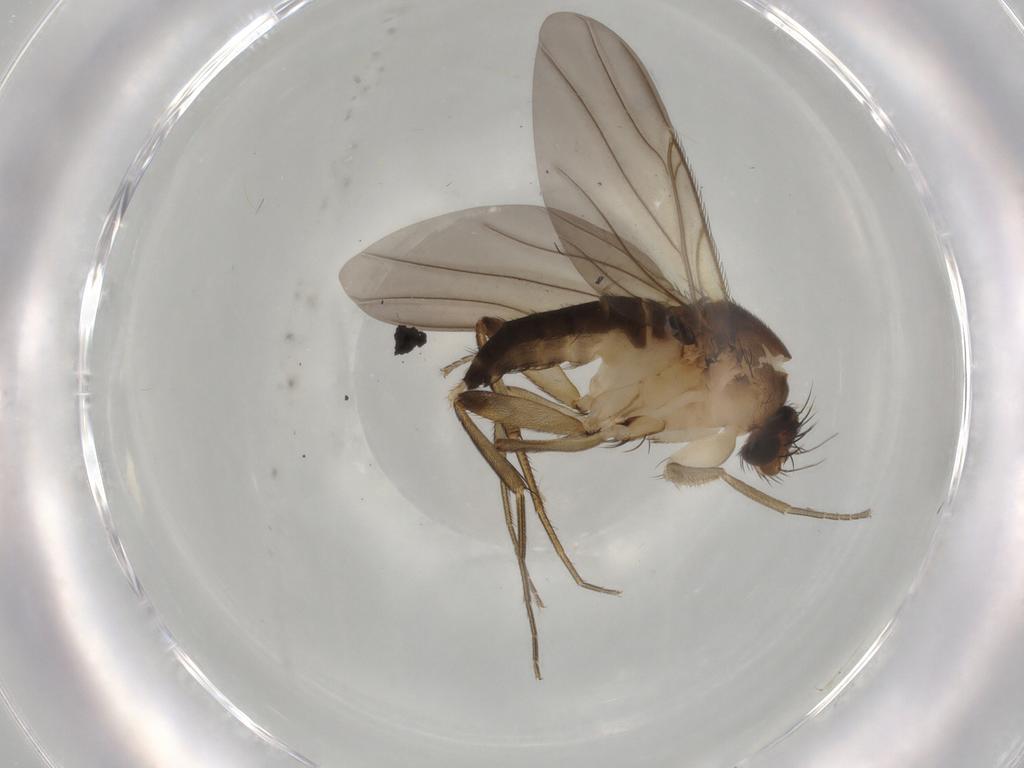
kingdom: Animalia
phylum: Arthropoda
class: Insecta
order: Diptera
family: Phoridae
